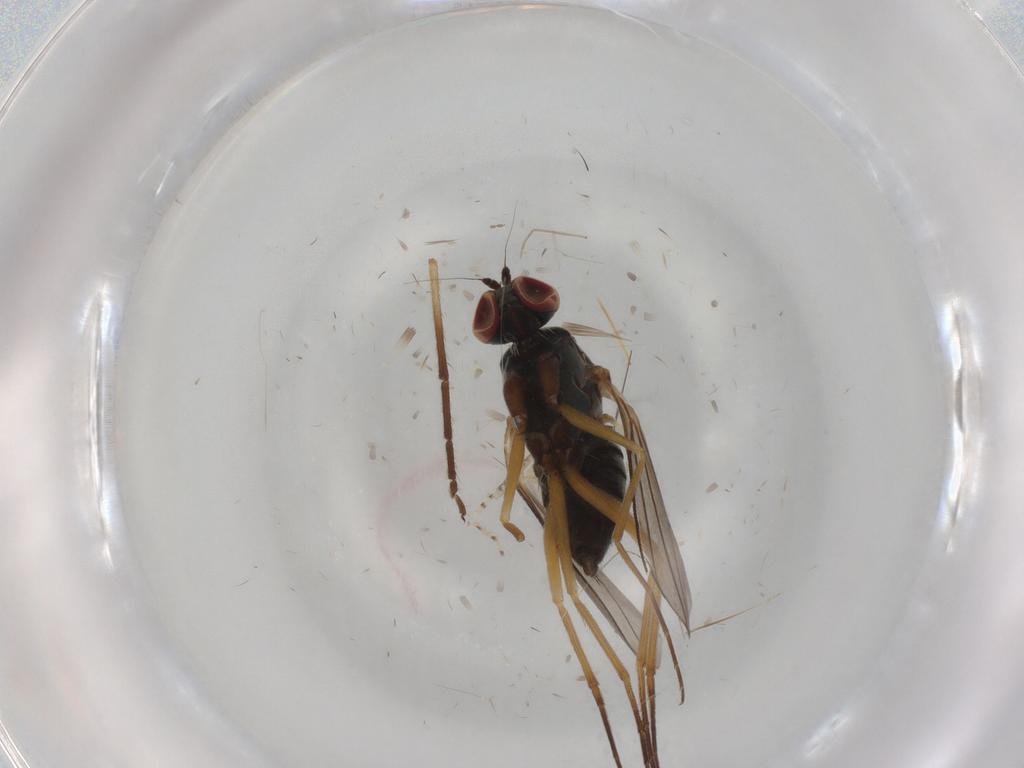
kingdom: Animalia
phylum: Arthropoda
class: Insecta
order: Diptera
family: Dolichopodidae
